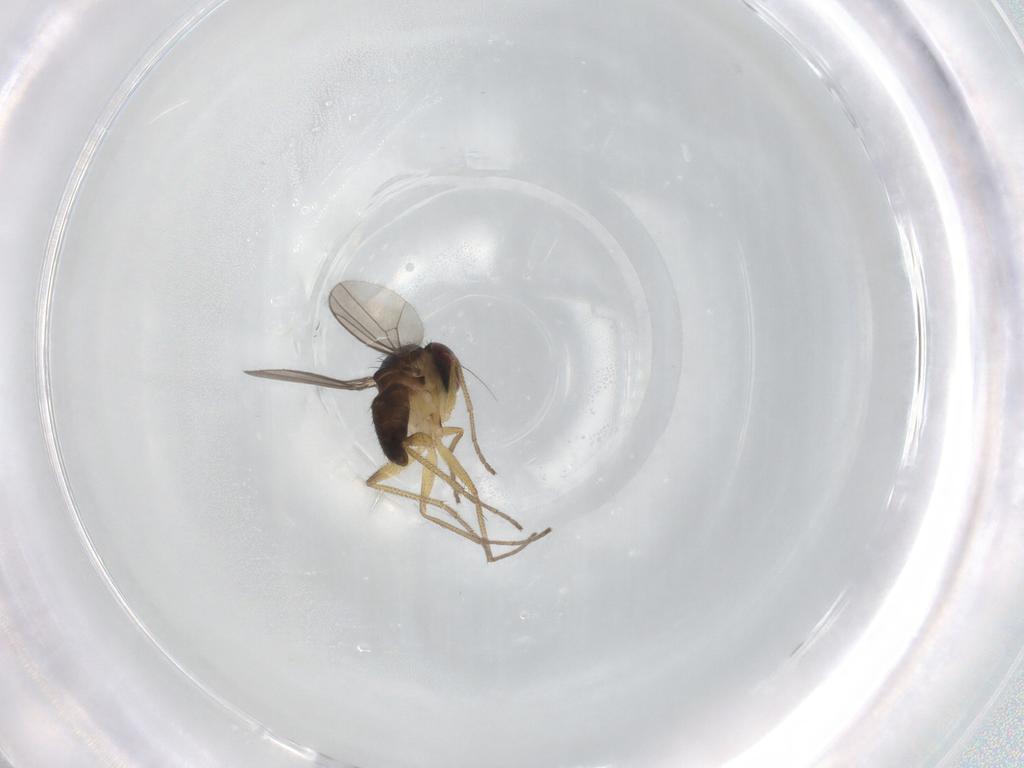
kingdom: Animalia
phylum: Arthropoda
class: Insecta
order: Diptera
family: Dolichopodidae
